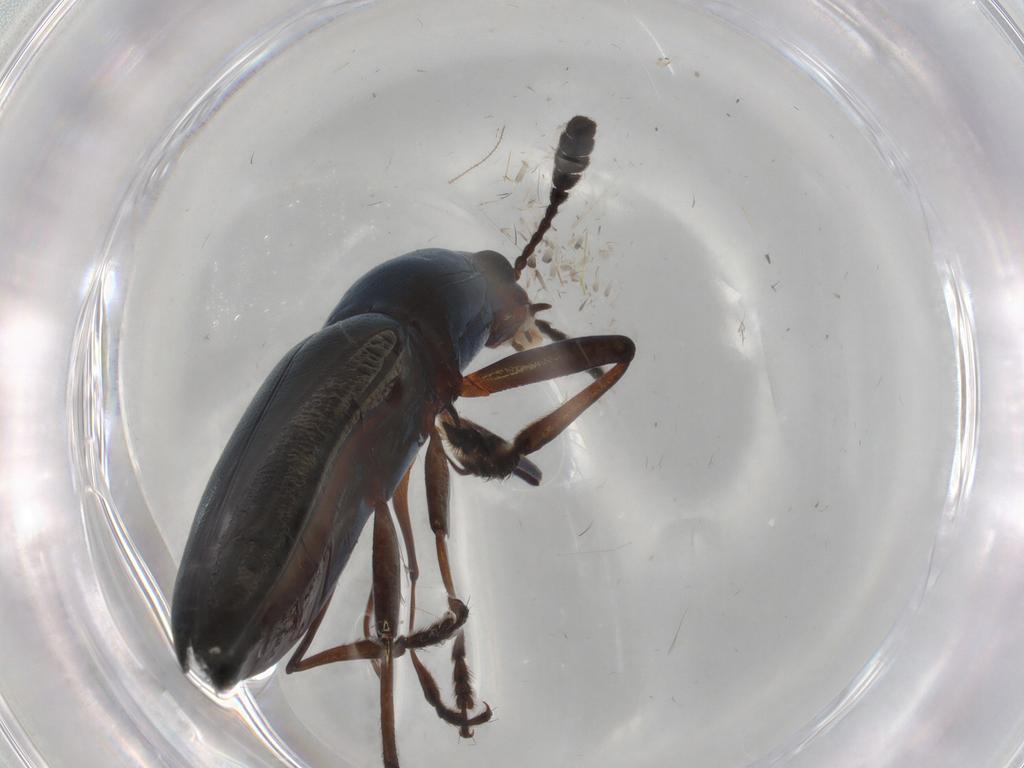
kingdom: Animalia
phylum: Arthropoda
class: Insecta
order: Coleoptera
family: Erotylidae
